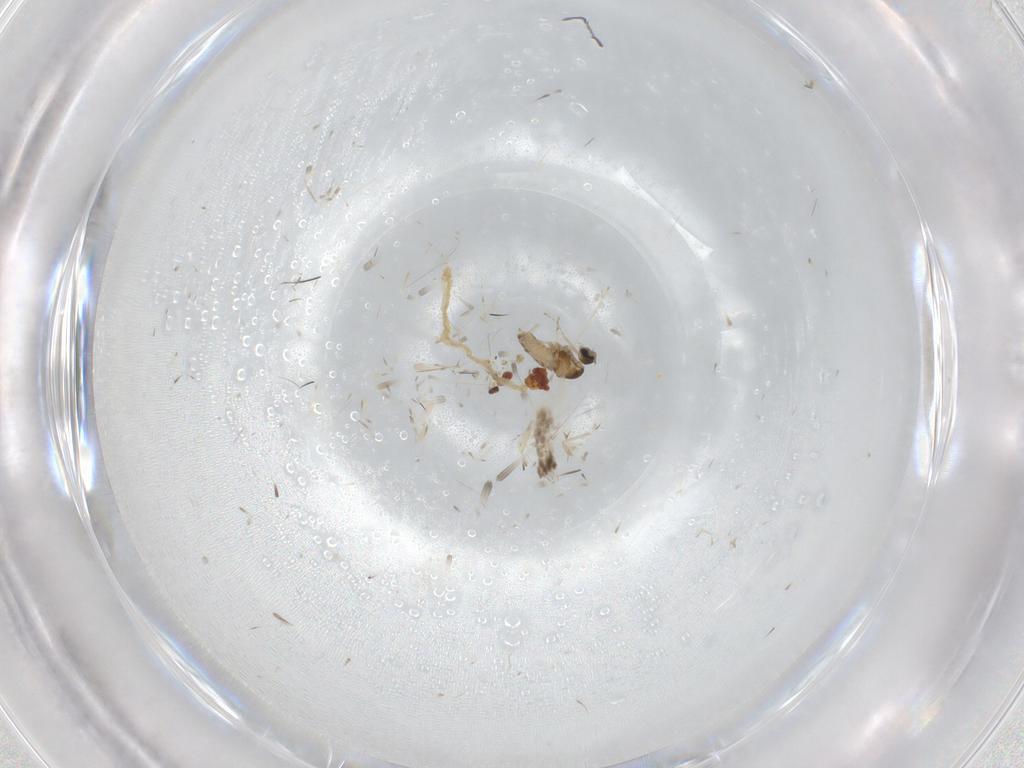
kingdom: Animalia
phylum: Arthropoda
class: Insecta
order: Diptera
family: Cecidomyiidae
